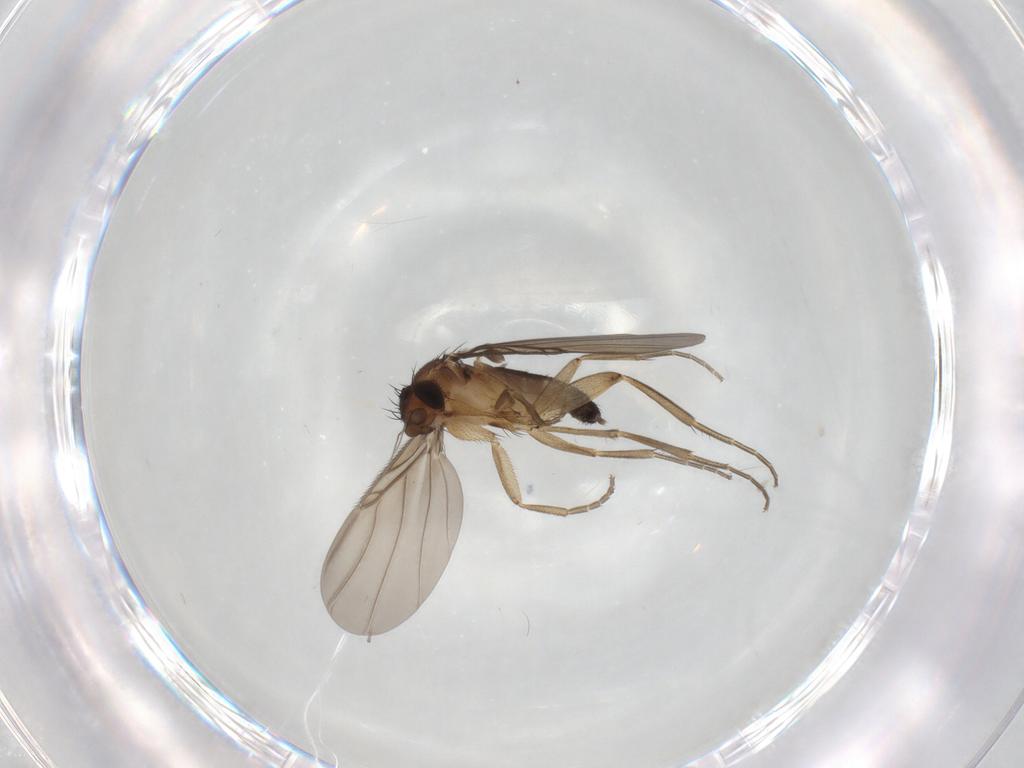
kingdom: Animalia
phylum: Arthropoda
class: Insecta
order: Diptera
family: Phoridae
